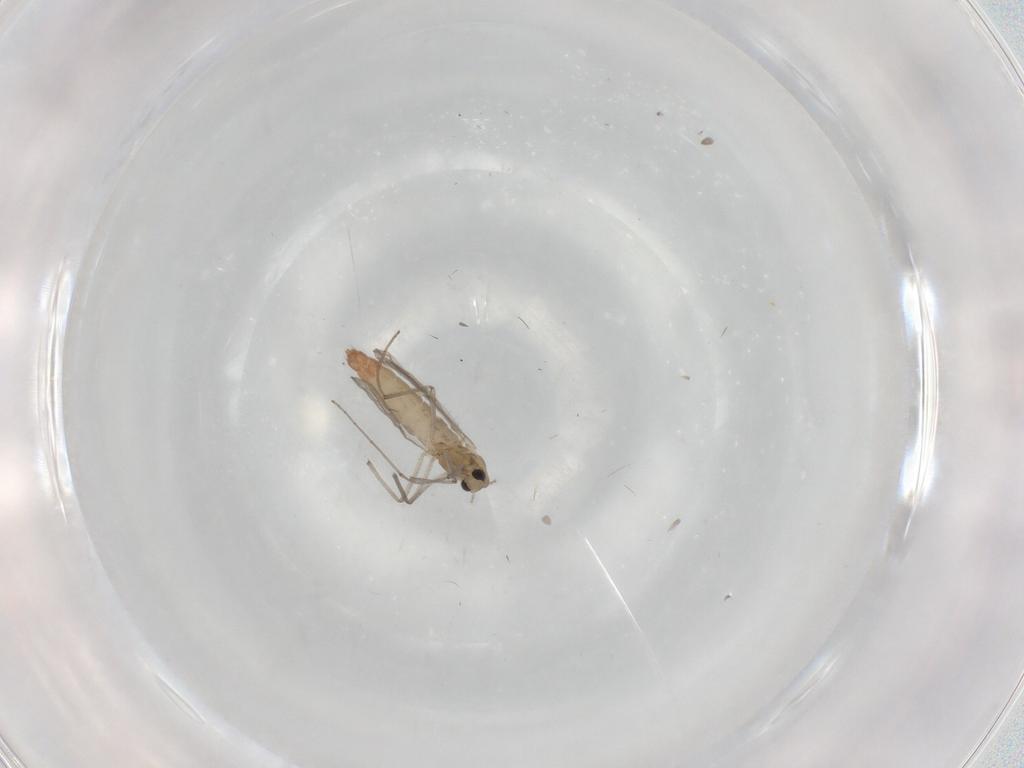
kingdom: Animalia
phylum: Arthropoda
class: Insecta
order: Diptera
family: Chironomidae
